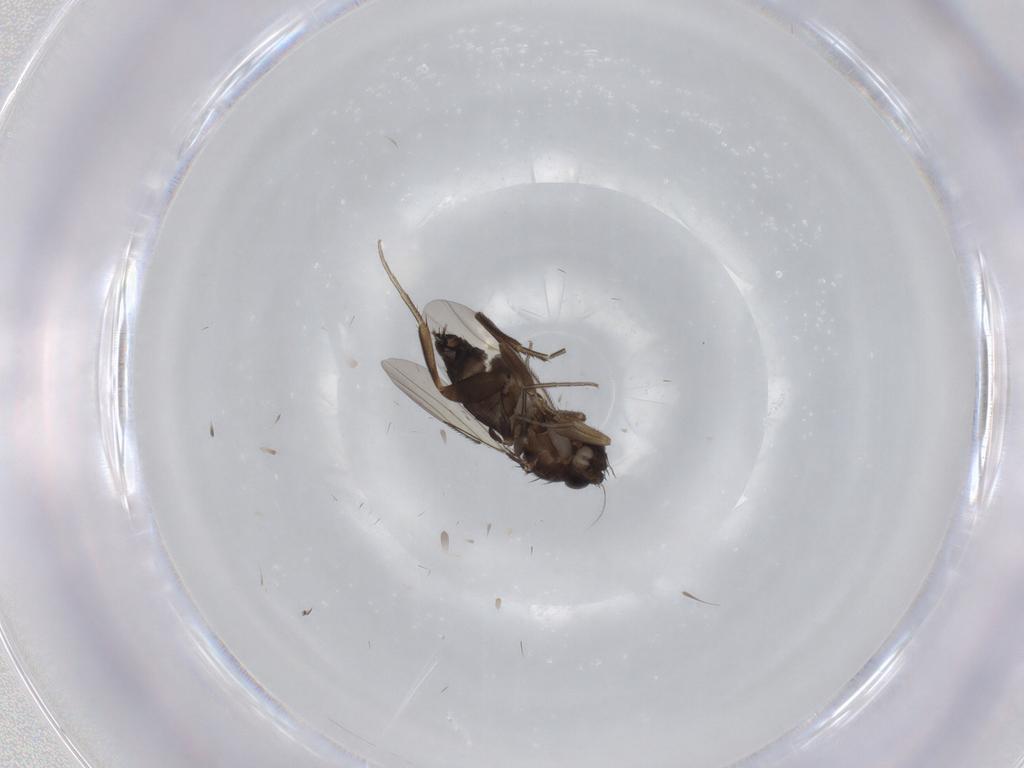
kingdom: Animalia
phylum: Arthropoda
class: Insecta
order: Diptera
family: Phoridae
